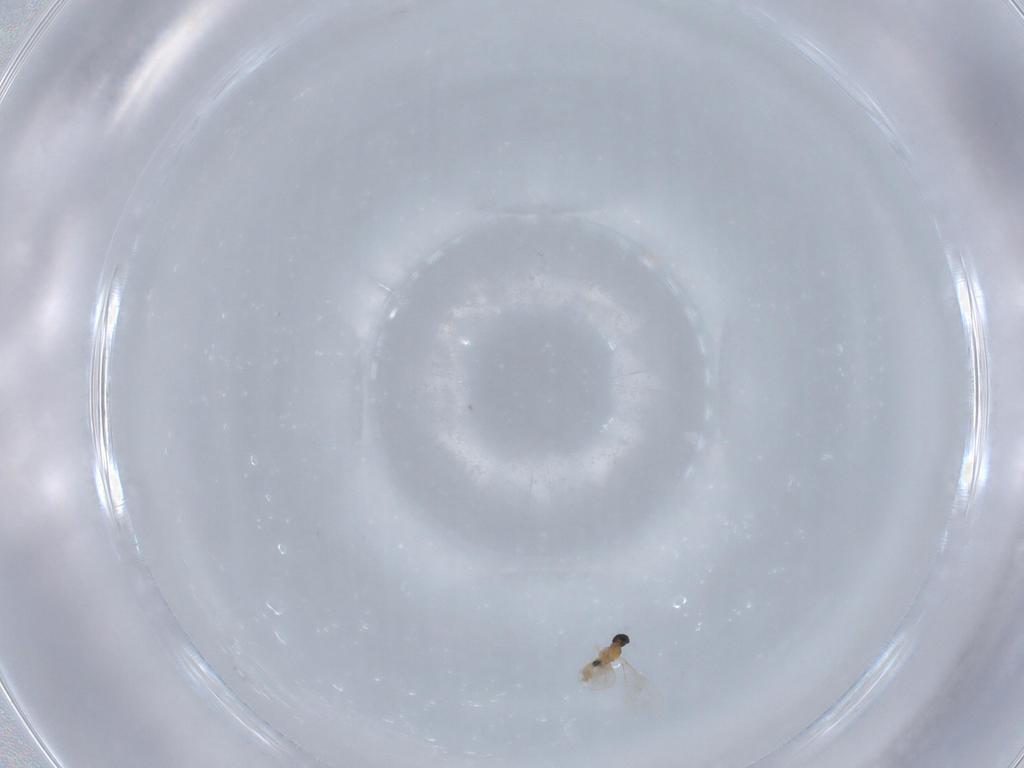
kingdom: Animalia
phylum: Arthropoda
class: Insecta
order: Diptera
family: Cecidomyiidae
